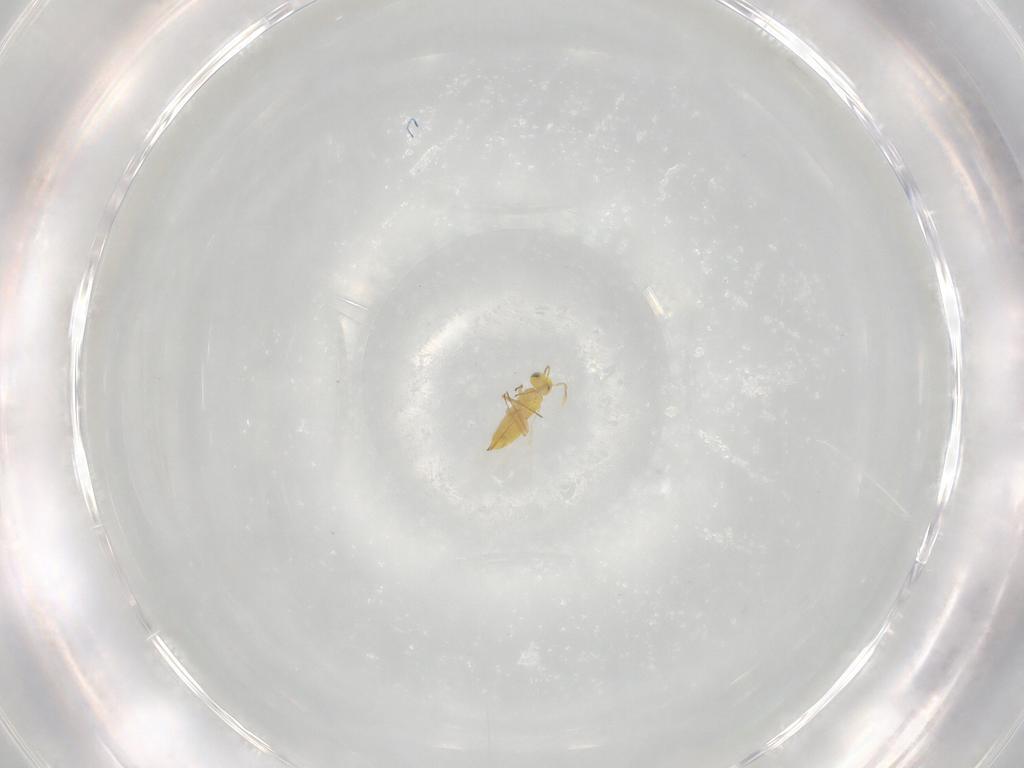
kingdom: Animalia
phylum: Arthropoda
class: Insecta
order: Hymenoptera
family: Aphelinidae
